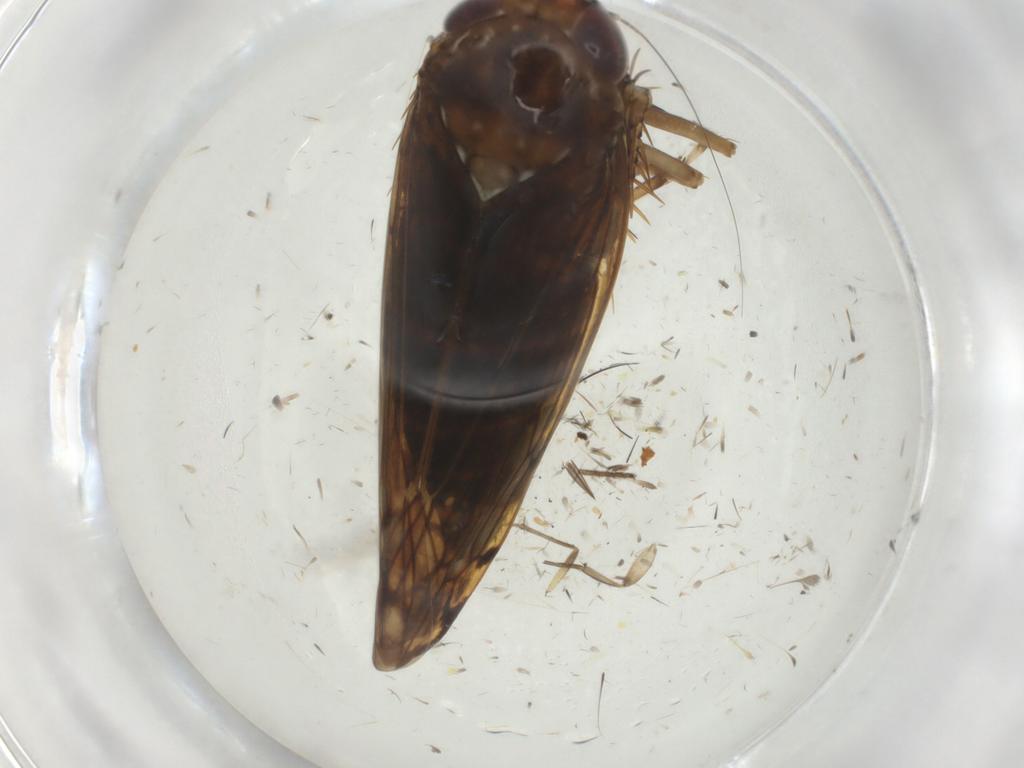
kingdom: Animalia
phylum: Arthropoda
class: Insecta
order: Hemiptera
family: Cicadellidae
